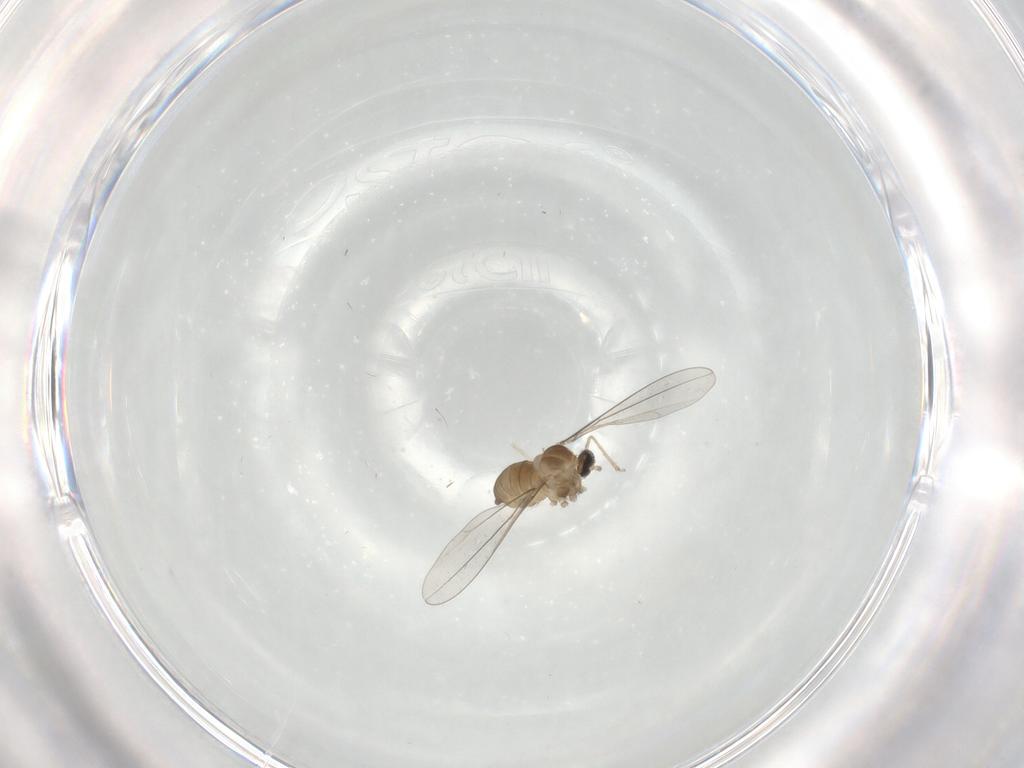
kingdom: Animalia
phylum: Arthropoda
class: Insecta
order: Diptera
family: Cecidomyiidae
